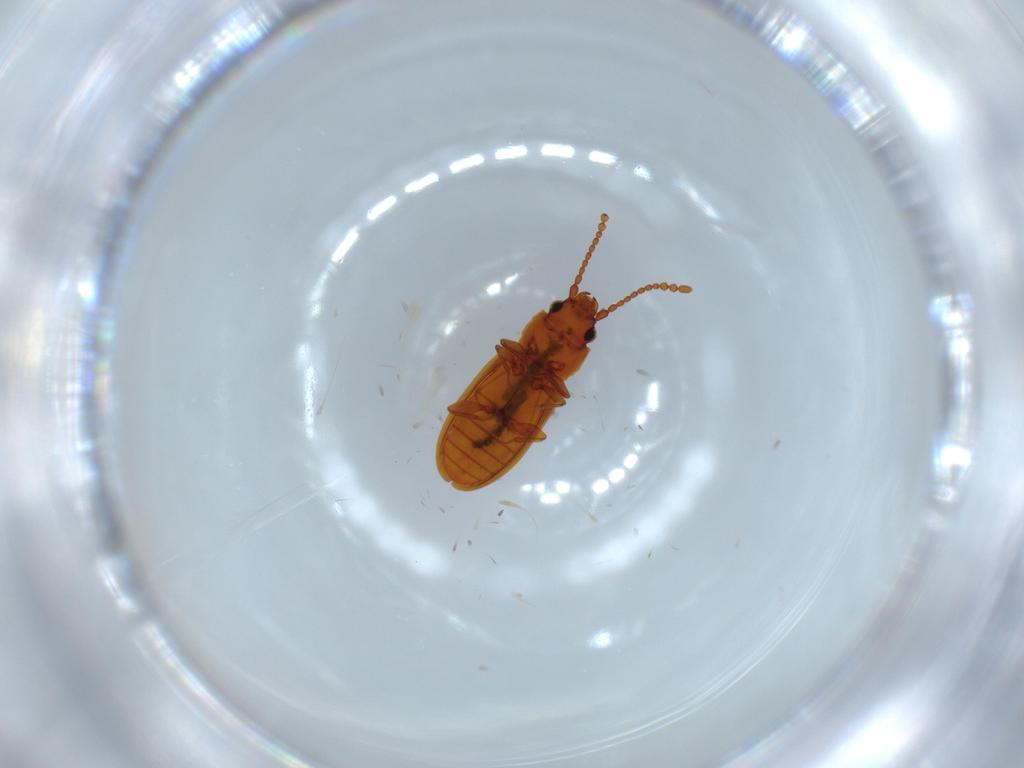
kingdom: Animalia
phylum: Arthropoda
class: Insecta
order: Coleoptera
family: Laemophloeidae
